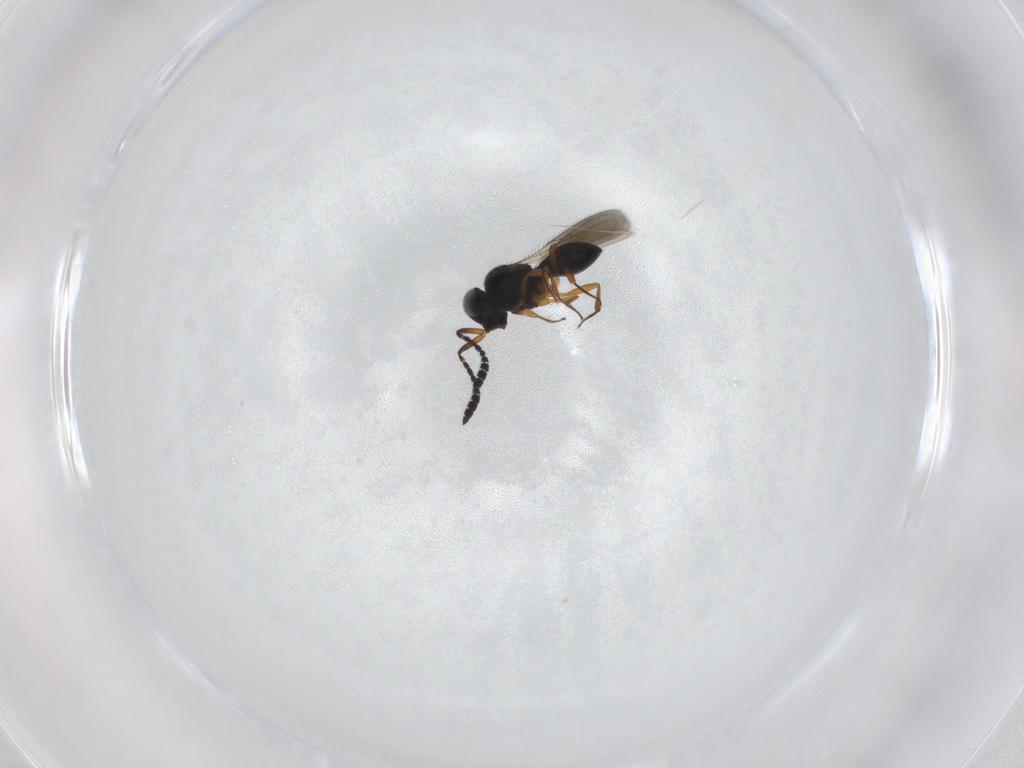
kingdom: Animalia
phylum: Arthropoda
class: Insecta
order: Hymenoptera
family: Scelionidae
